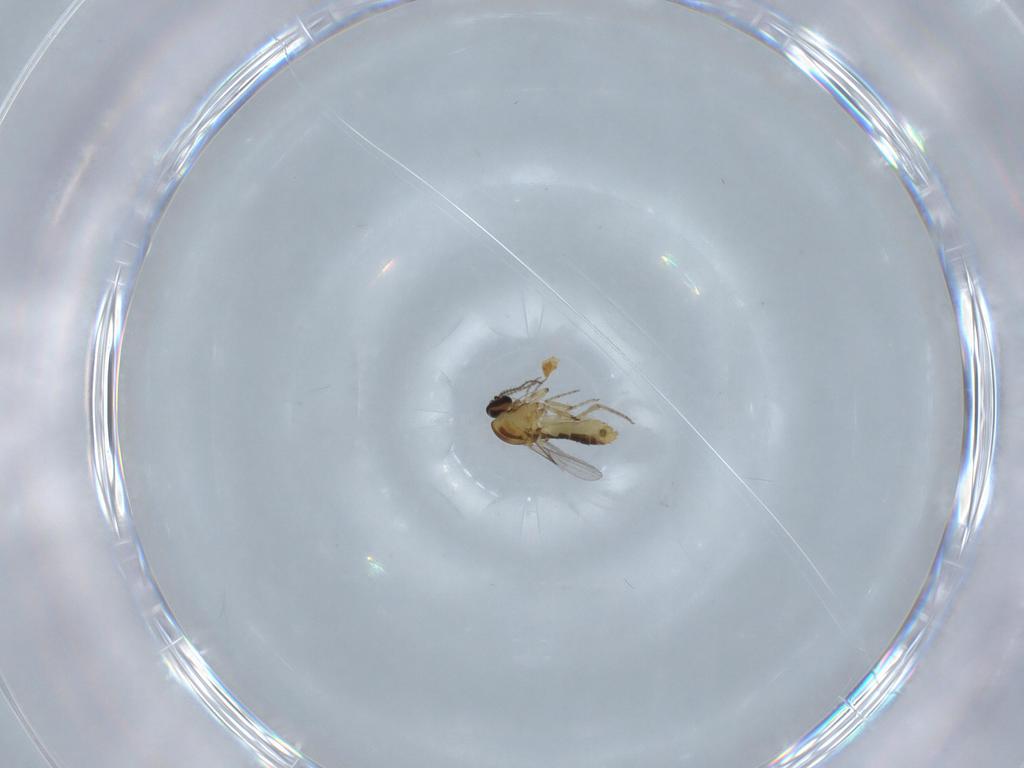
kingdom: Animalia
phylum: Arthropoda
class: Insecta
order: Diptera
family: Ceratopogonidae
